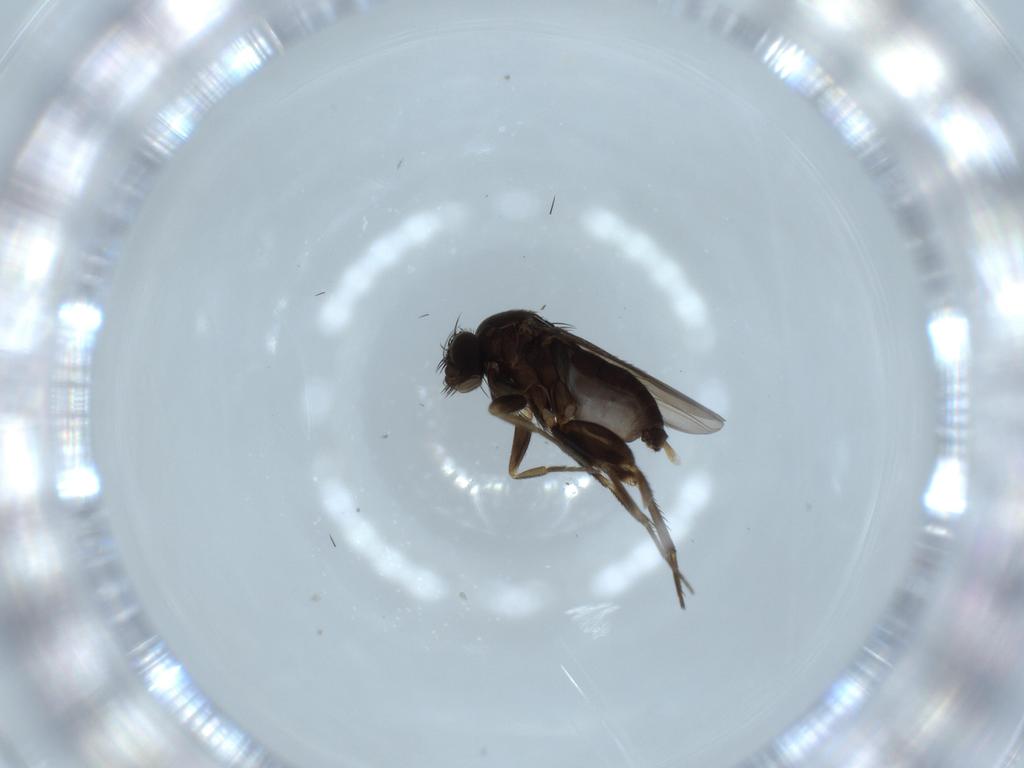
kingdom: Animalia
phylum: Arthropoda
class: Insecta
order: Diptera
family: Phoridae
